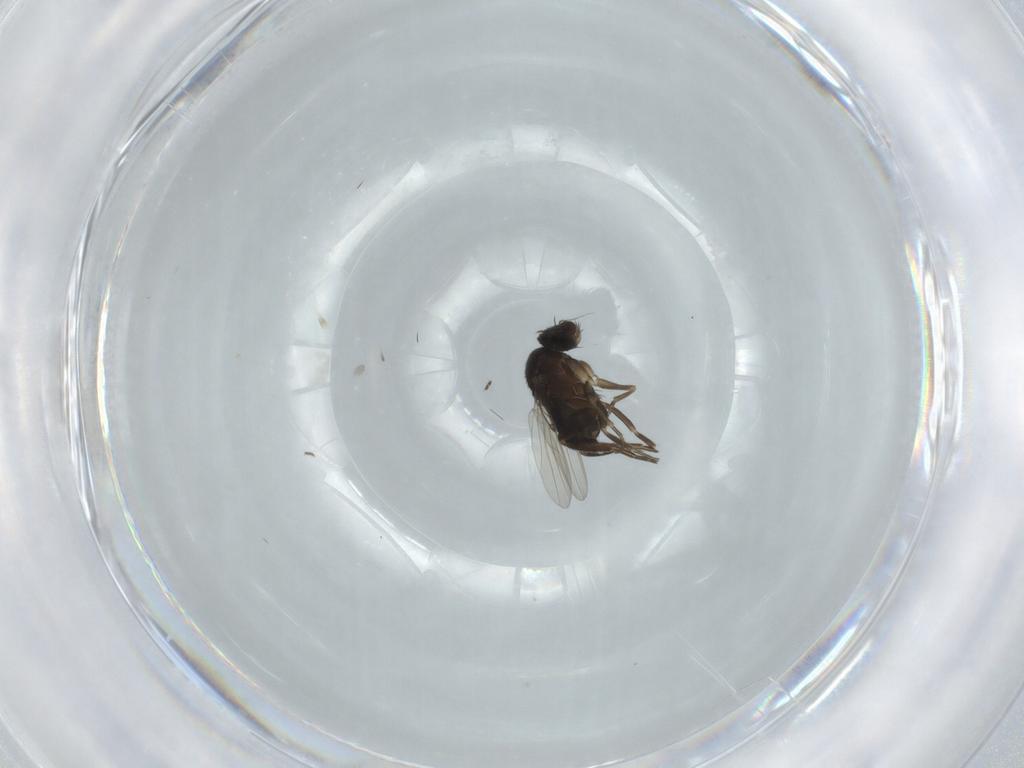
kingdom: Animalia
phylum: Arthropoda
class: Insecta
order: Diptera
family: Phoridae
